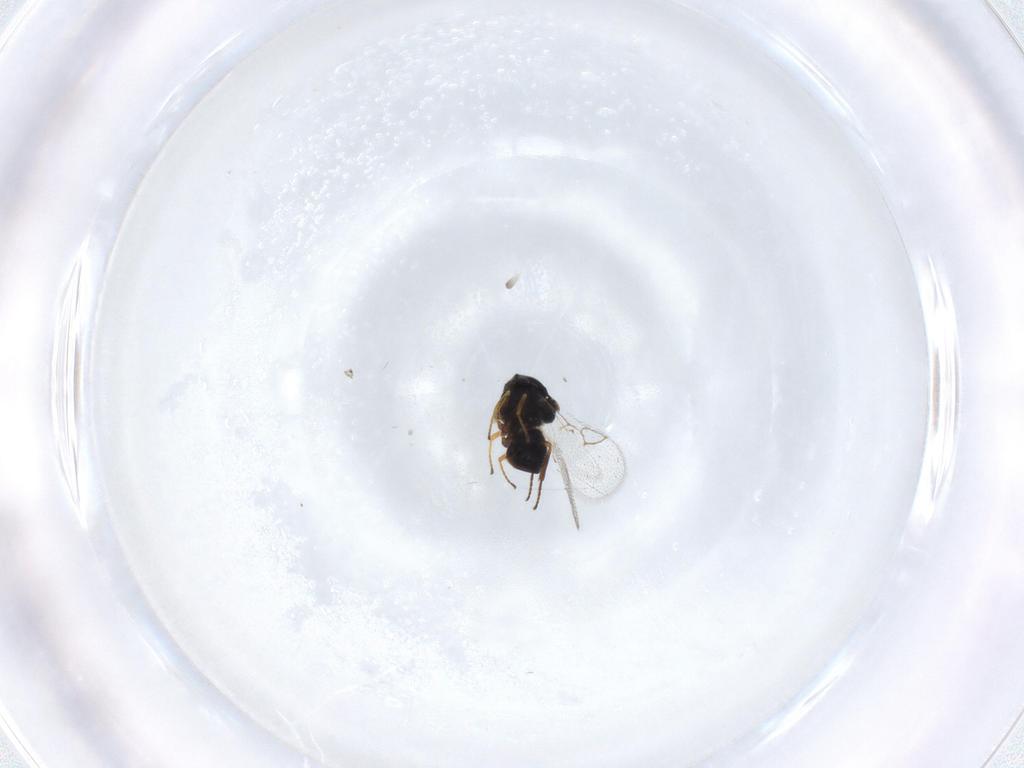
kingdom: Animalia
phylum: Arthropoda
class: Insecta
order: Hymenoptera
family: Figitidae
